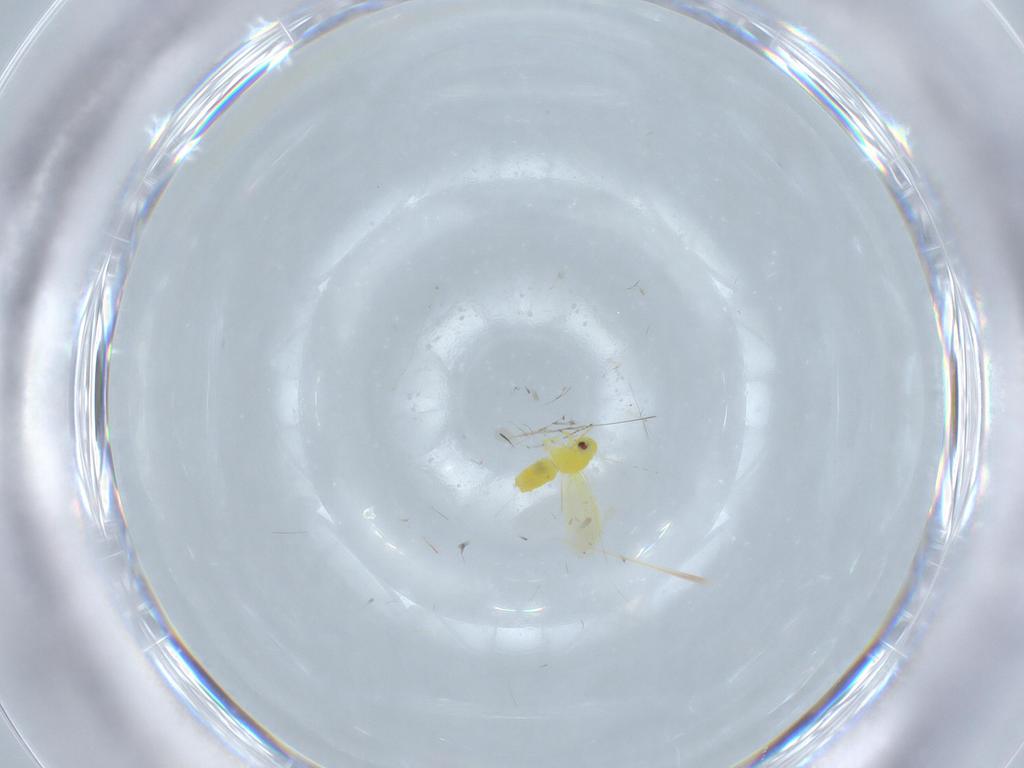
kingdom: Animalia
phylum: Arthropoda
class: Insecta
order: Hemiptera
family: Aleyrodidae
